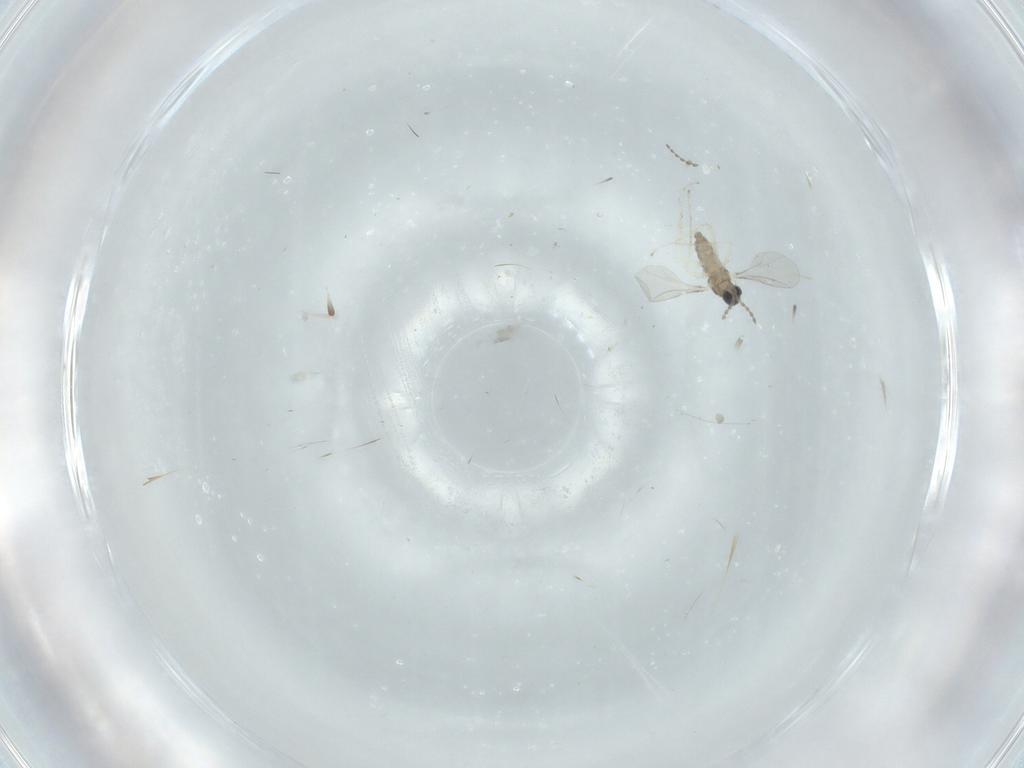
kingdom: Animalia
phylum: Arthropoda
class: Insecta
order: Diptera
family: Cecidomyiidae
